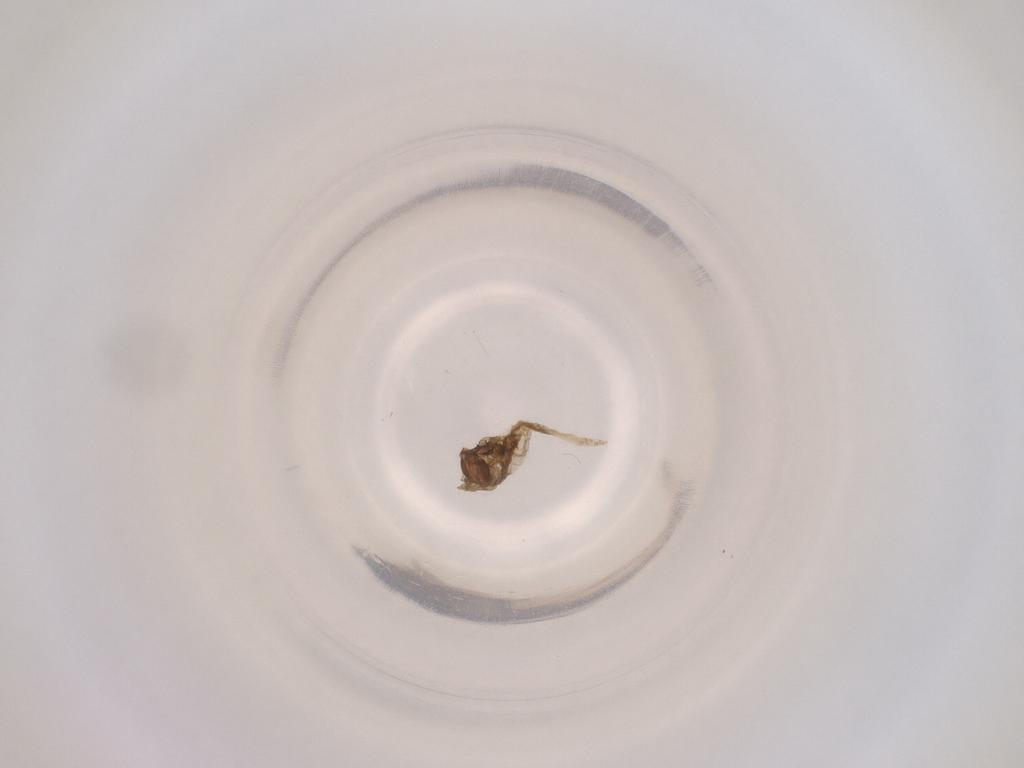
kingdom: Animalia
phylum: Arthropoda
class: Insecta
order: Diptera
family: Cecidomyiidae
